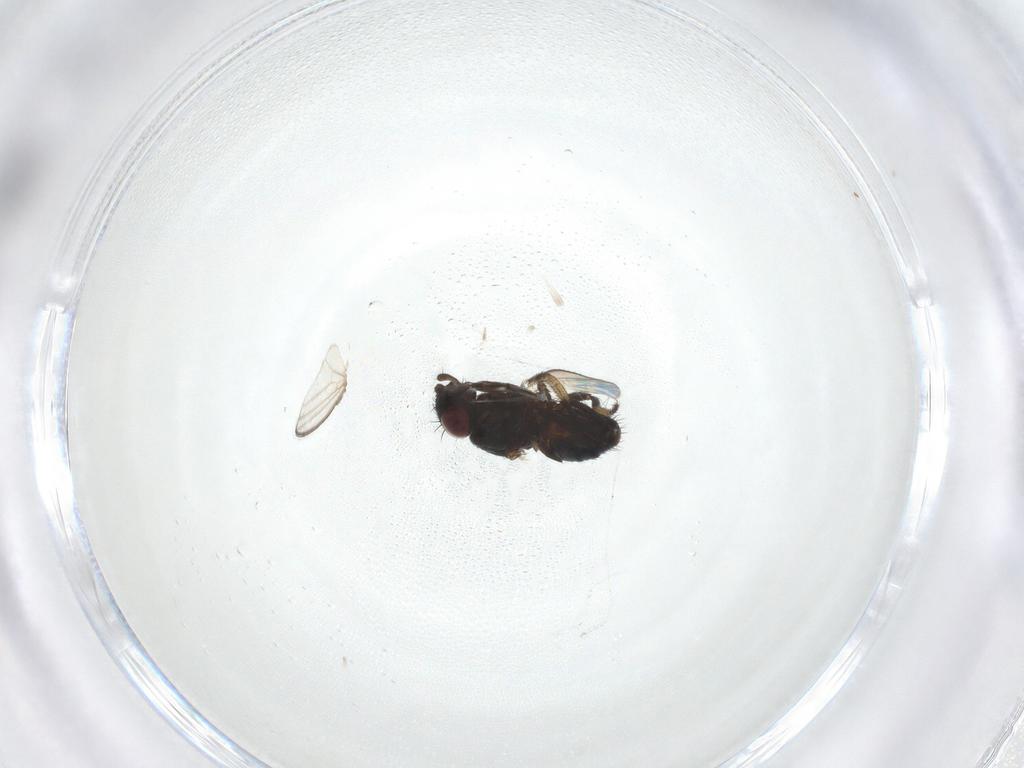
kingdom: Animalia
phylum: Arthropoda
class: Insecta
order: Diptera
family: Milichiidae
